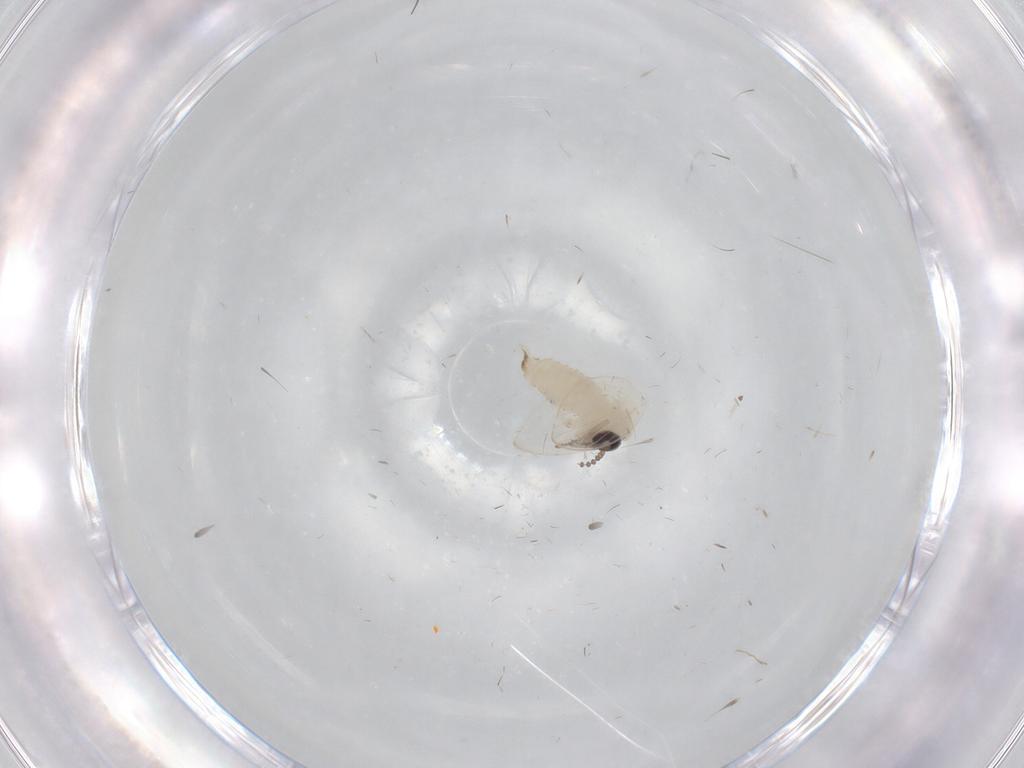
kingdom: Animalia
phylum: Arthropoda
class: Insecta
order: Diptera
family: Psychodidae
